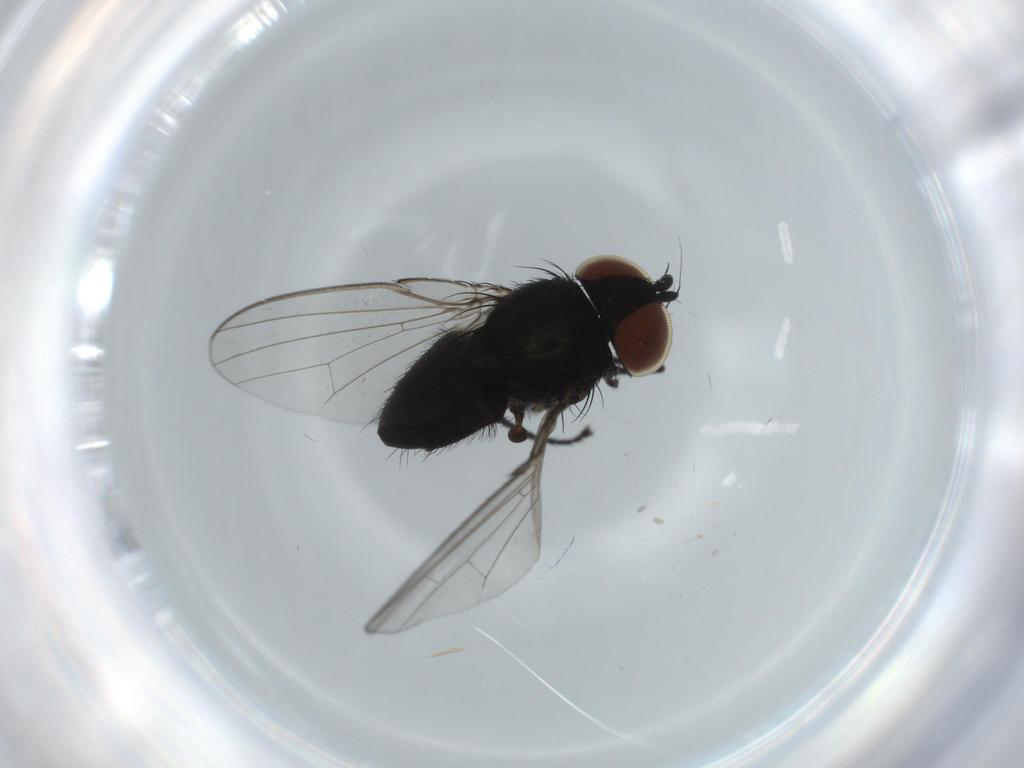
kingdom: Animalia
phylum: Arthropoda
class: Insecta
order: Diptera
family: Milichiidae
